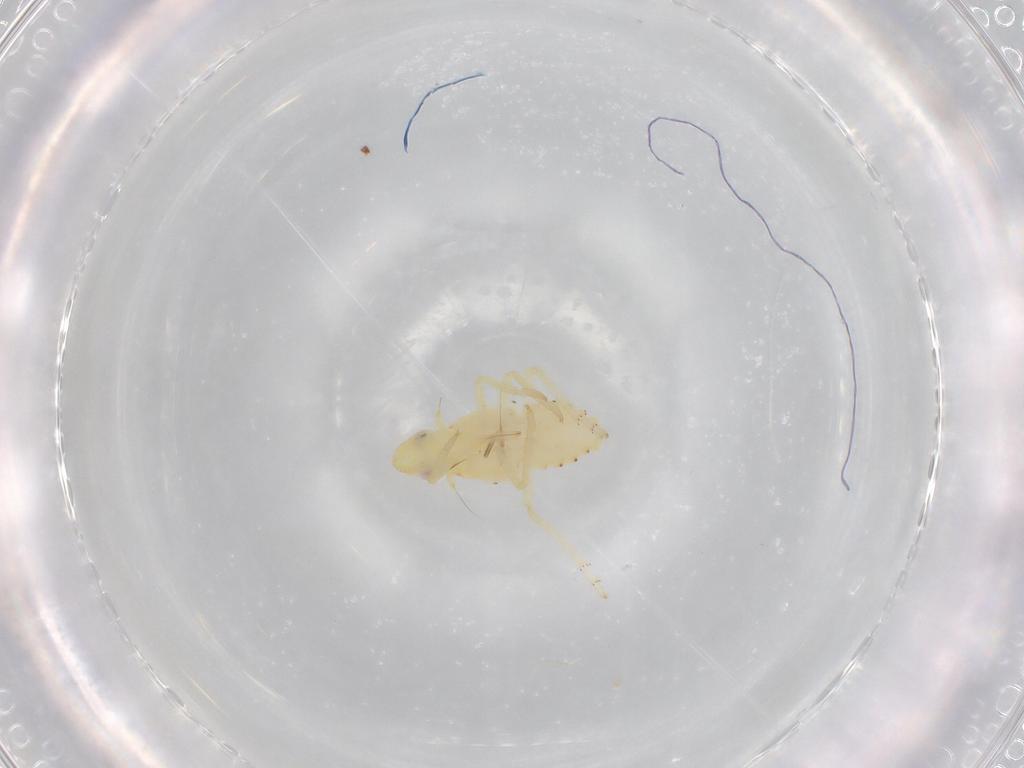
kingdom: Animalia
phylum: Arthropoda
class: Insecta
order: Hemiptera
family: Tropiduchidae
